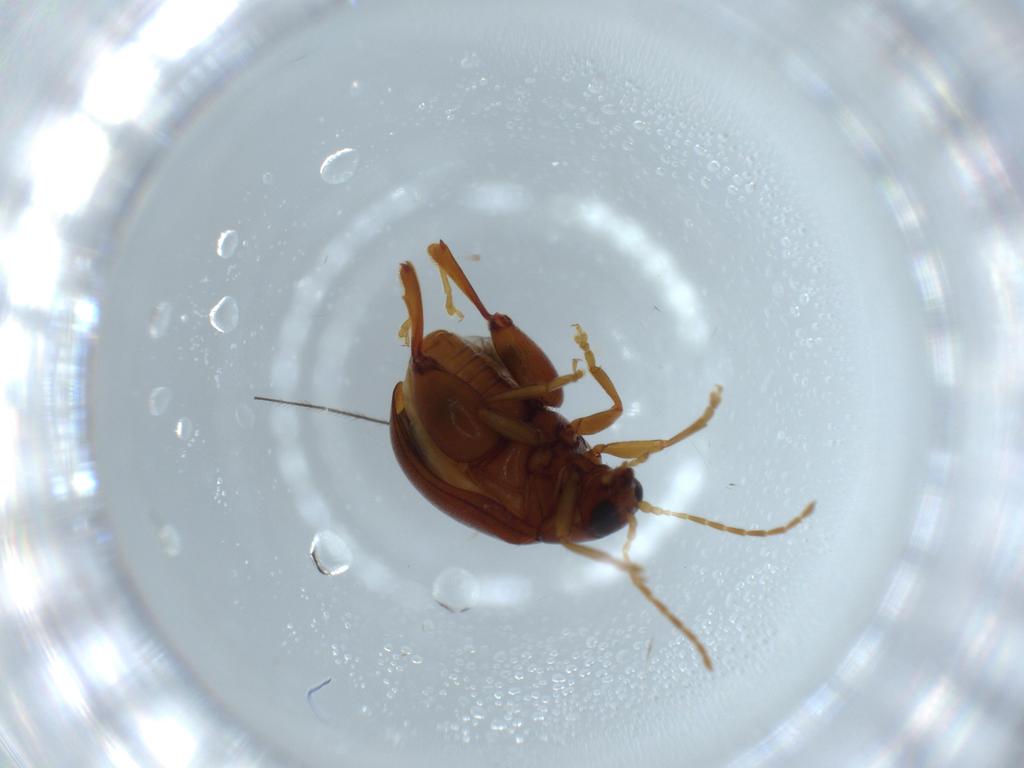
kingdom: Animalia
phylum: Arthropoda
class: Insecta
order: Coleoptera
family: Chrysomelidae
